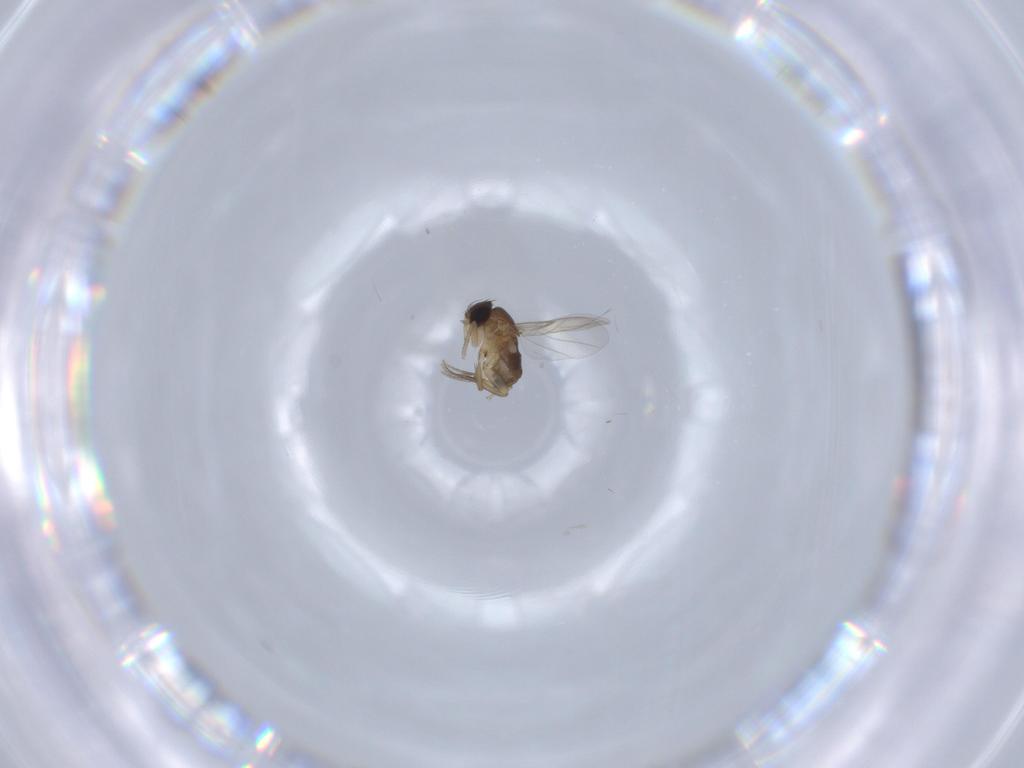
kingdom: Animalia
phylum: Arthropoda
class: Insecta
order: Diptera
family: Phoridae
